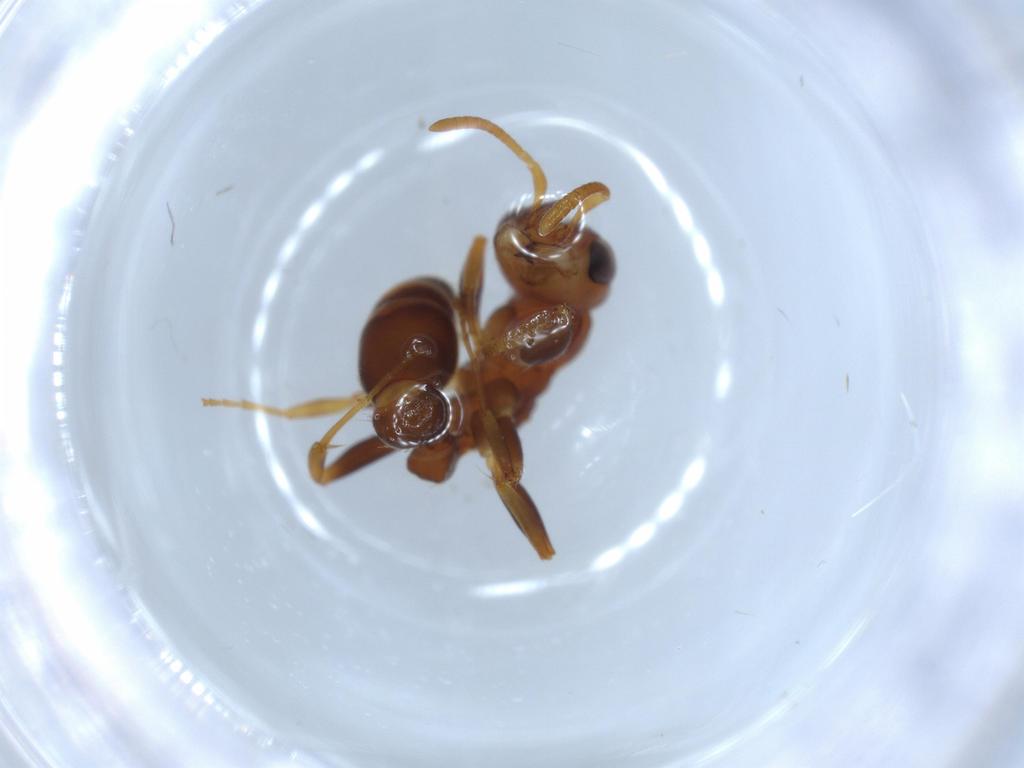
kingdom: Animalia
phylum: Arthropoda
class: Insecta
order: Hymenoptera
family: Formicidae
